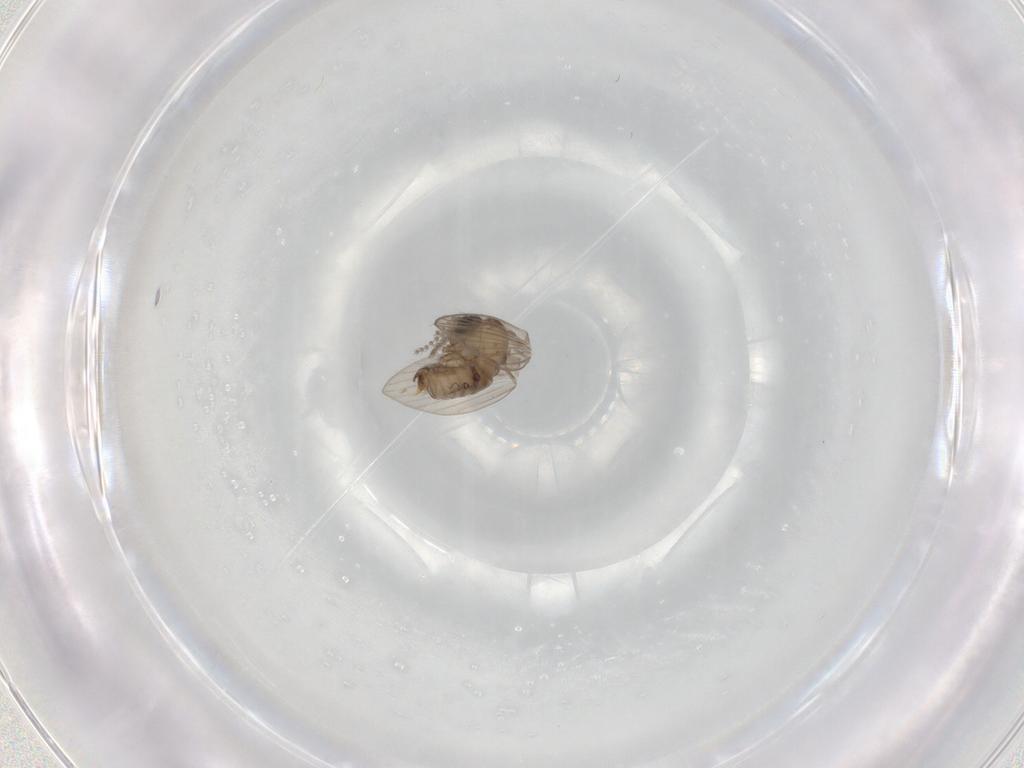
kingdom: Animalia
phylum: Arthropoda
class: Insecta
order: Diptera
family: Psychodidae
